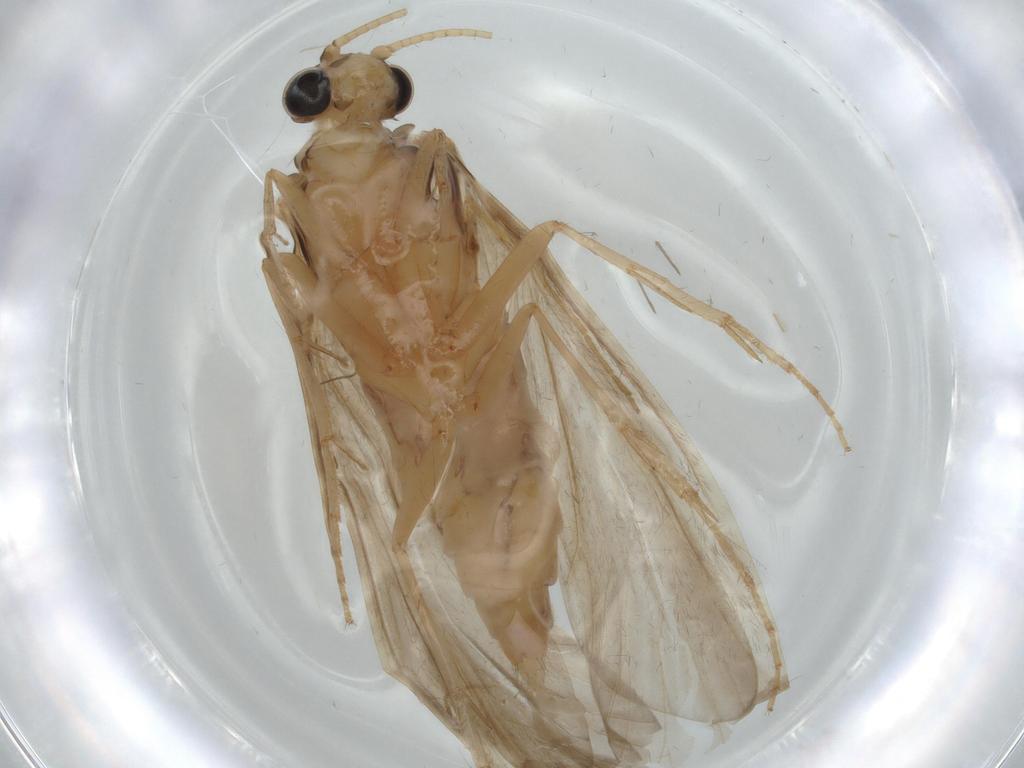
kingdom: Animalia
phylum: Arthropoda
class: Insecta
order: Trichoptera
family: Ecnomidae
